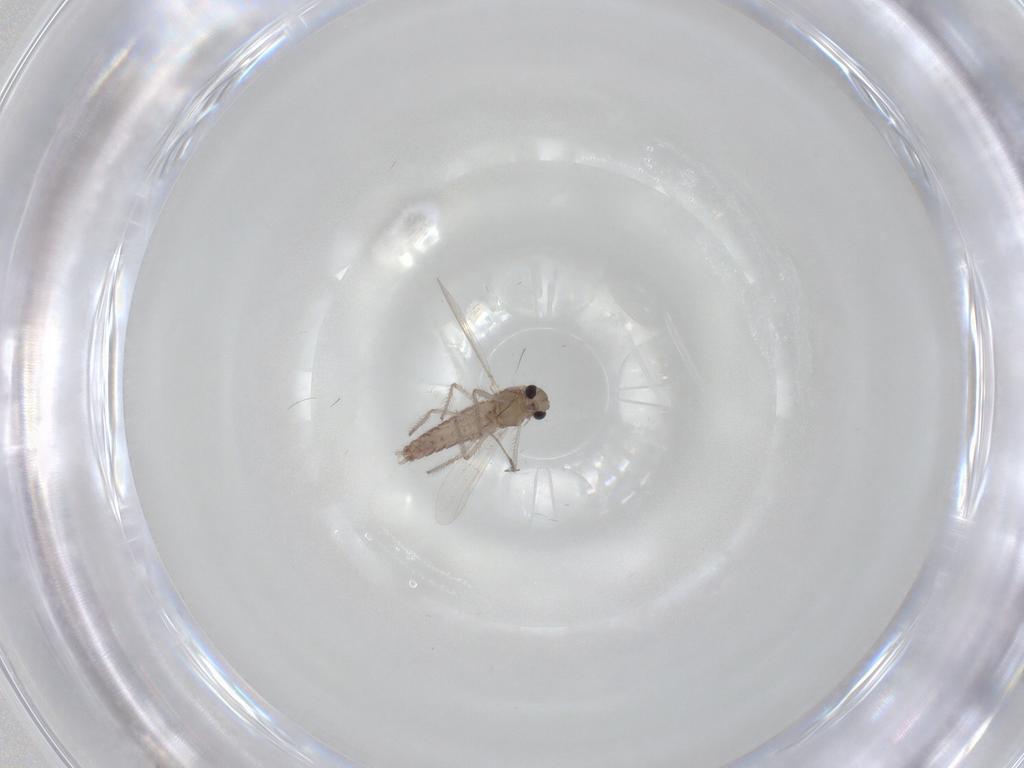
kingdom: Animalia
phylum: Arthropoda
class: Insecta
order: Diptera
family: Chironomidae
